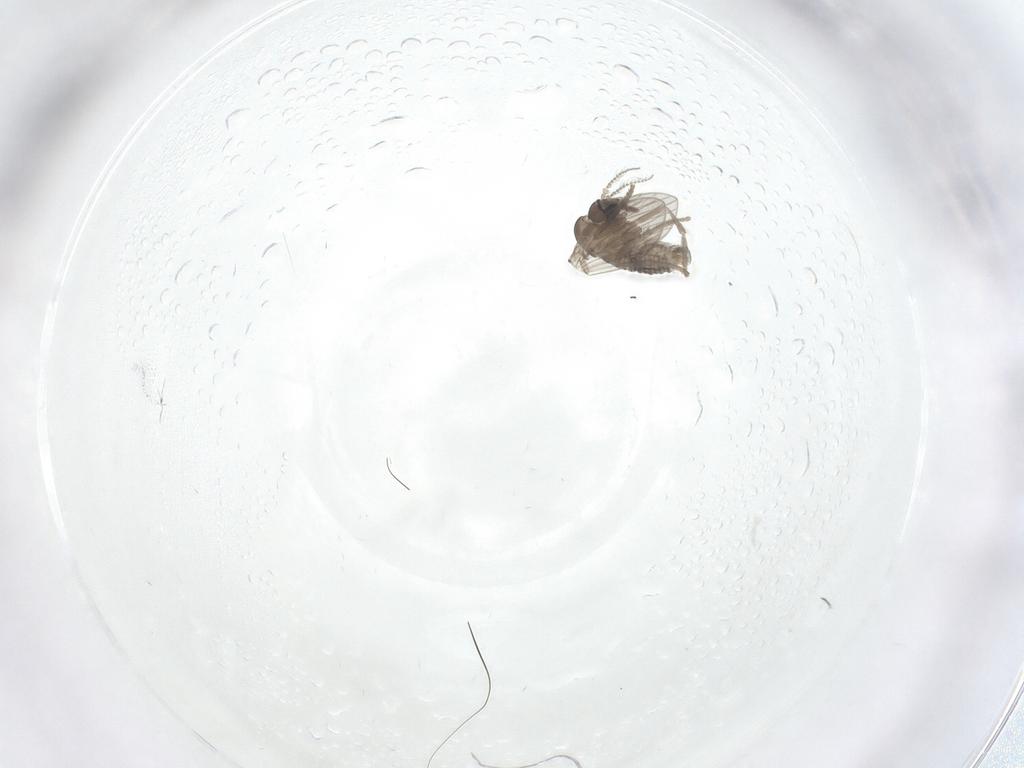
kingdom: Animalia
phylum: Arthropoda
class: Insecta
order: Diptera
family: Psychodidae
